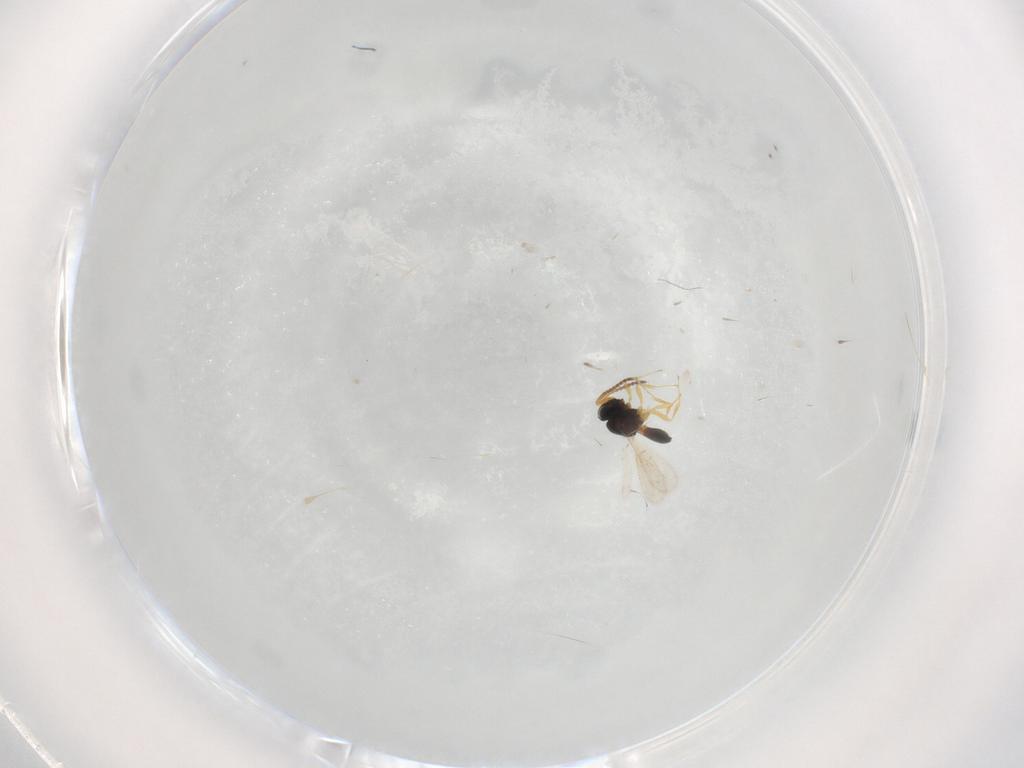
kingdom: Animalia
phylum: Arthropoda
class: Insecta
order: Hymenoptera
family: Scelionidae
